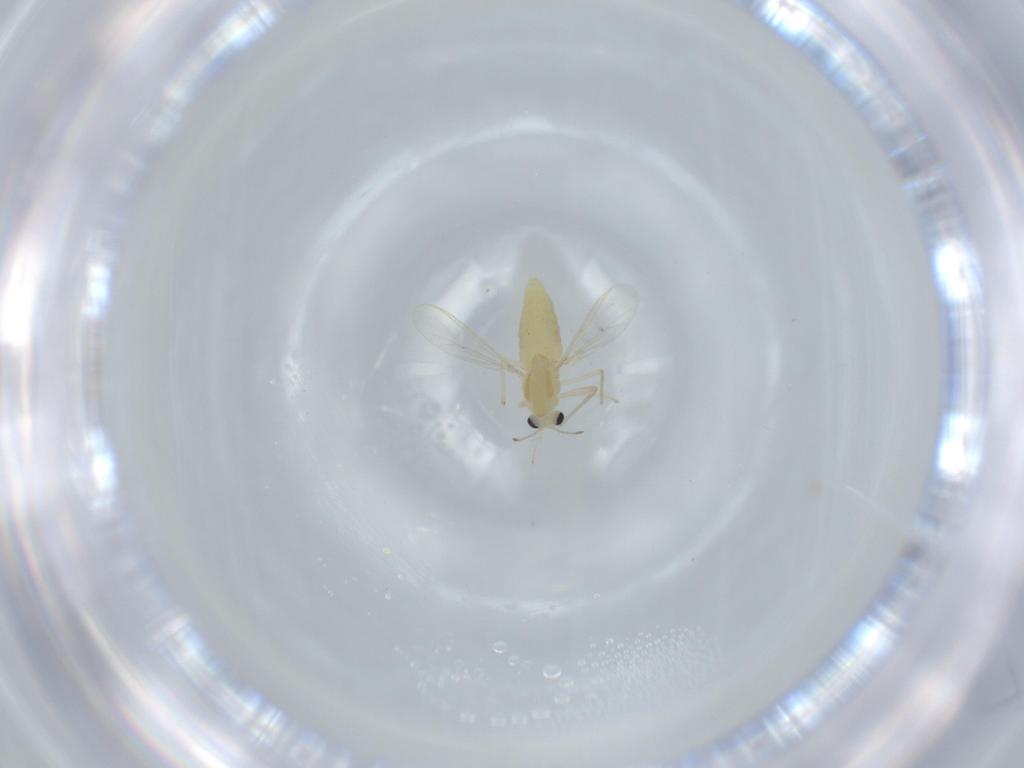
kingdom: Animalia
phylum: Arthropoda
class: Insecta
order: Diptera
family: Chironomidae
